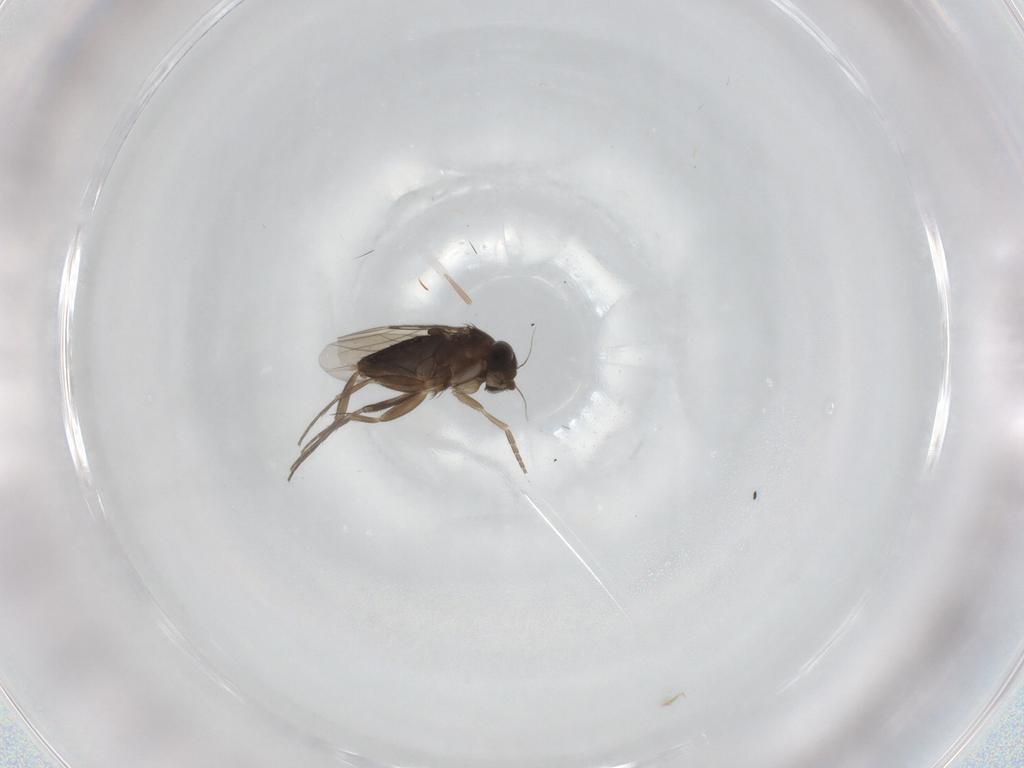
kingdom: Animalia
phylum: Arthropoda
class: Insecta
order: Diptera
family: Phoridae
